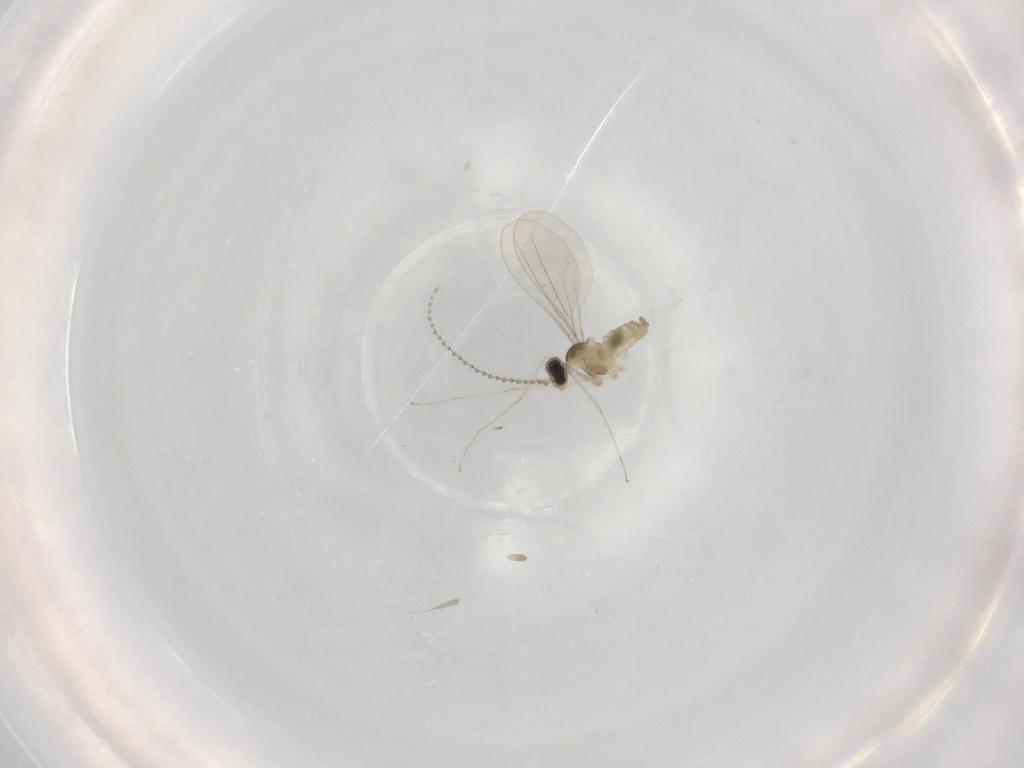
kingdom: Animalia
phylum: Arthropoda
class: Insecta
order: Diptera
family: Cecidomyiidae
